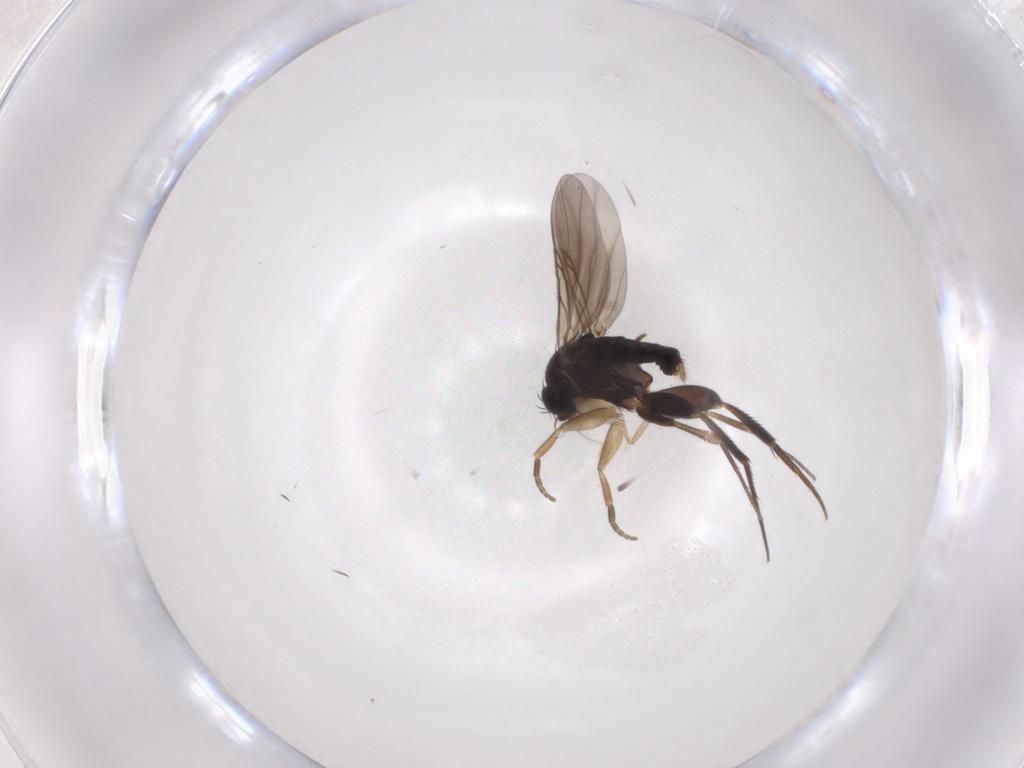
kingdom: Animalia
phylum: Arthropoda
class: Insecta
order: Diptera
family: Phoridae
